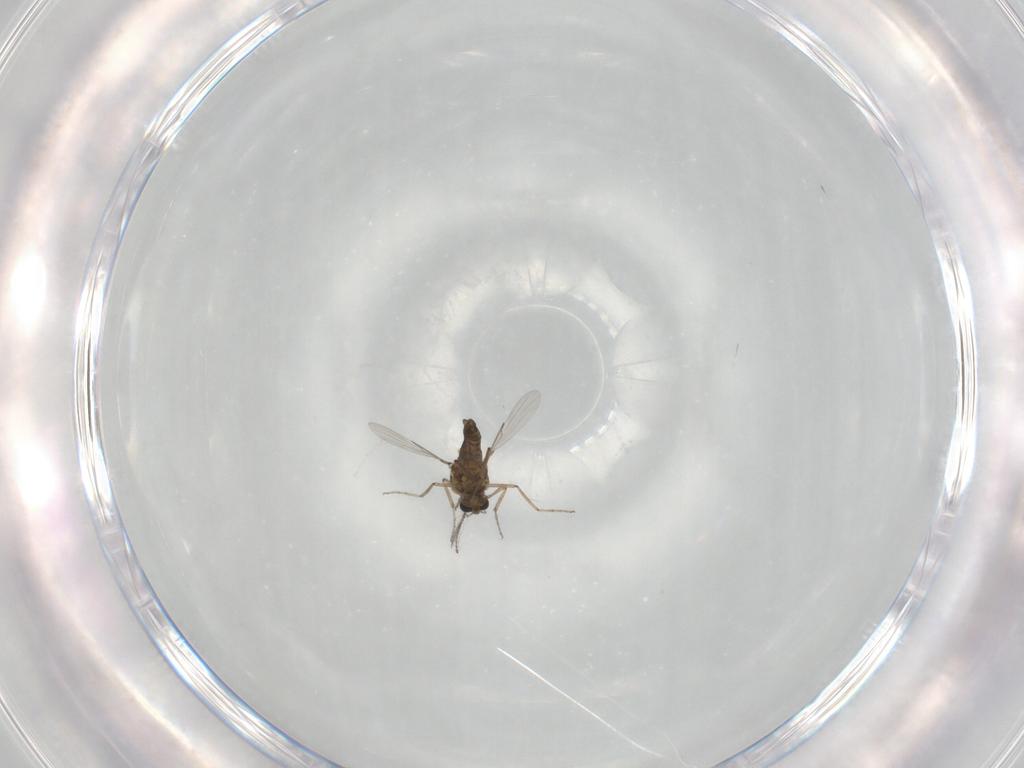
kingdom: Animalia
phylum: Arthropoda
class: Insecta
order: Diptera
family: Ceratopogonidae
